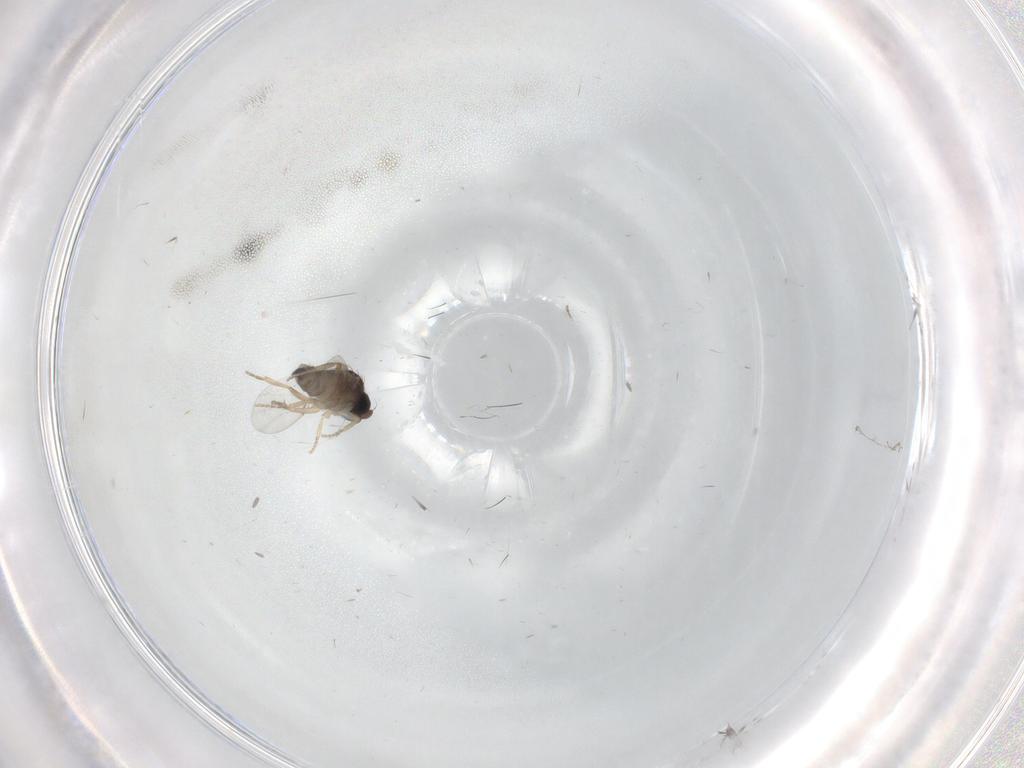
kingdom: Animalia
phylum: Arthropoda
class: Insecta
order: Diptera
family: Phoridae
